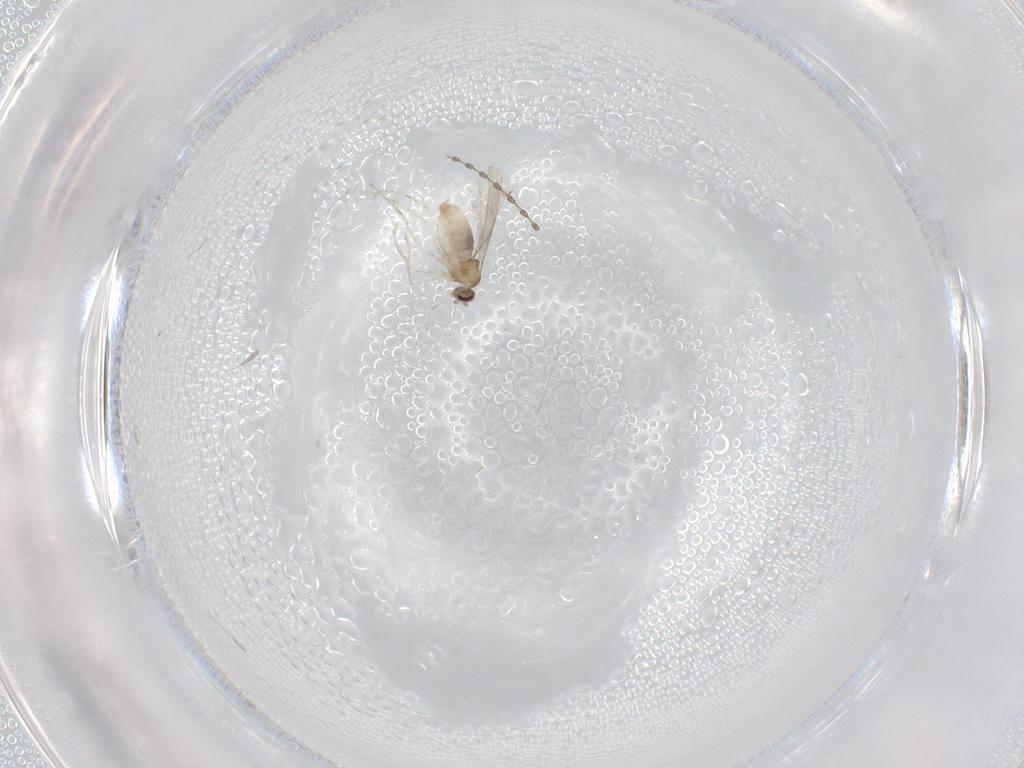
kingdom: Animalia
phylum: Arthropoda
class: Insecta
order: Diptera
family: Cecidomyiidae
